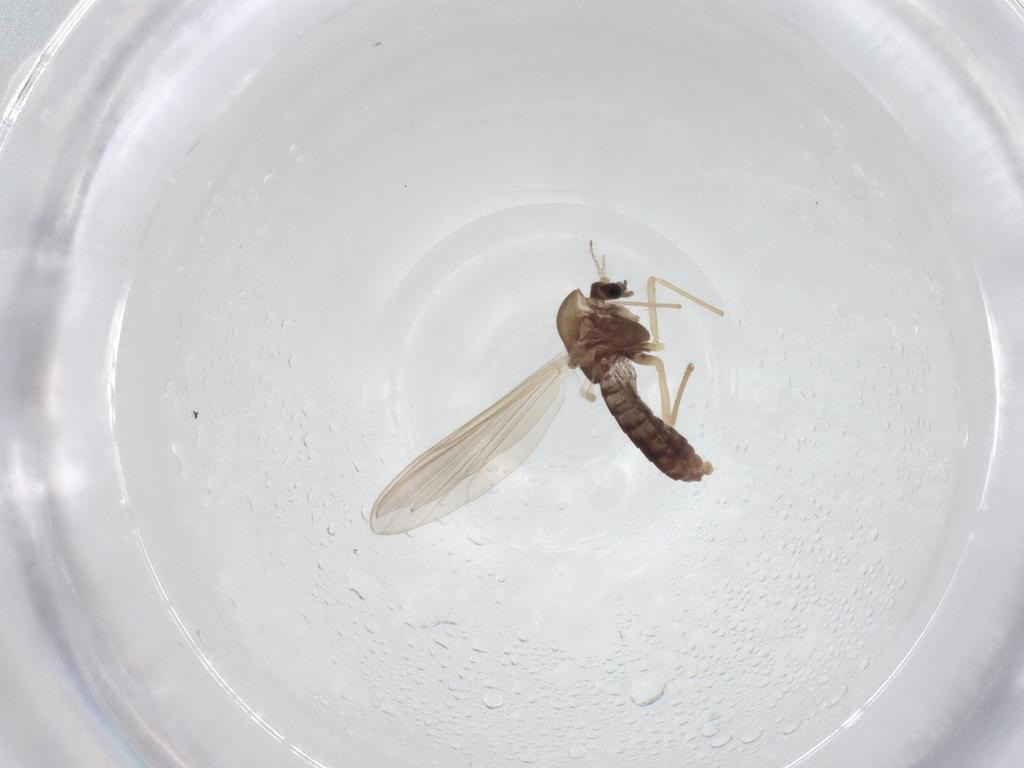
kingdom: Animalia
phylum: Arthropoda
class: Insecta
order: Diptera
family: Chironomidae
